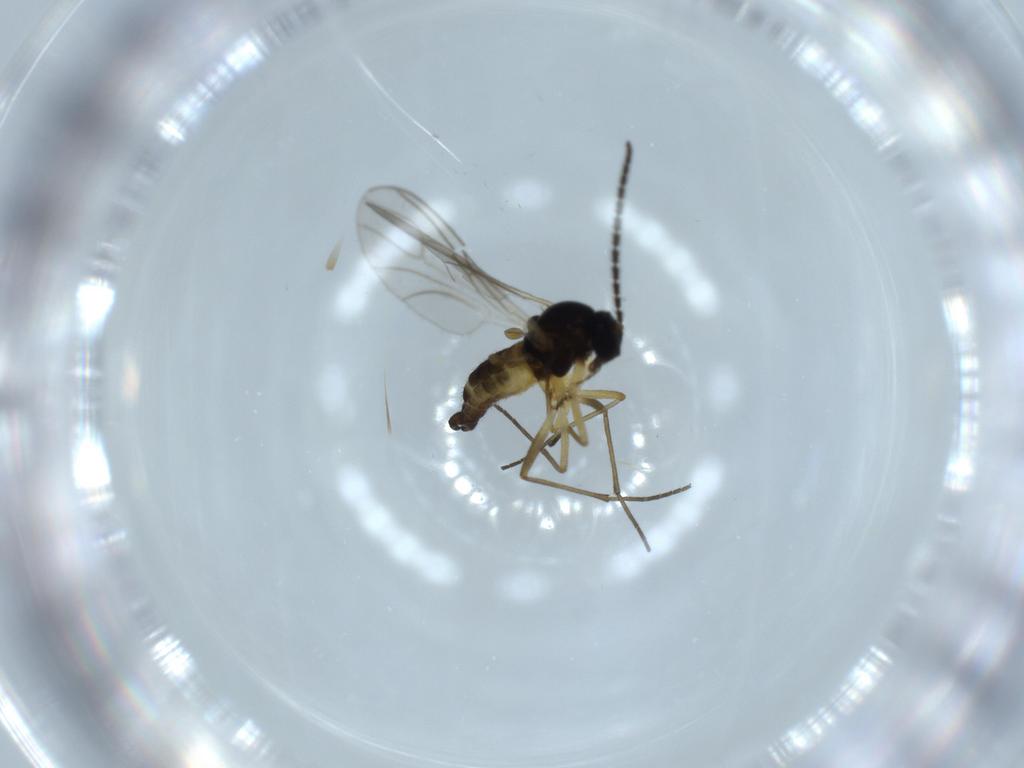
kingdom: Animalia
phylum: Arthropoda
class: Insecta
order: Diptera
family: Sciaridae
